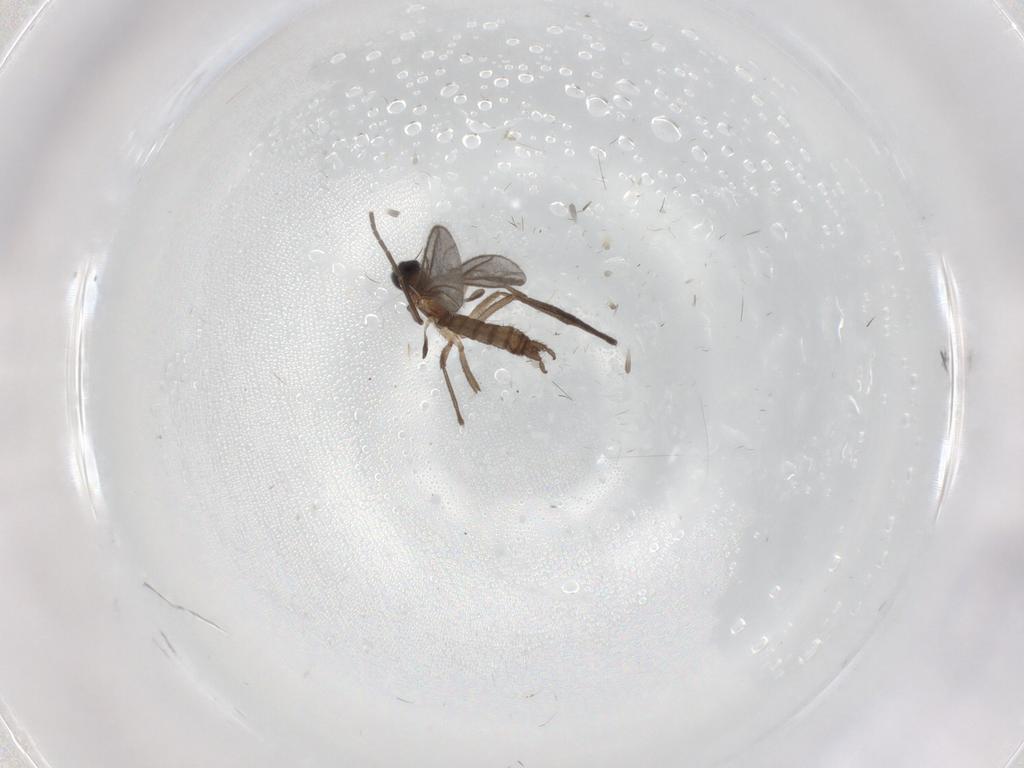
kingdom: Animalia
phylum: Arthropoda
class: Insecta
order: Diptera
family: Sciaridae
